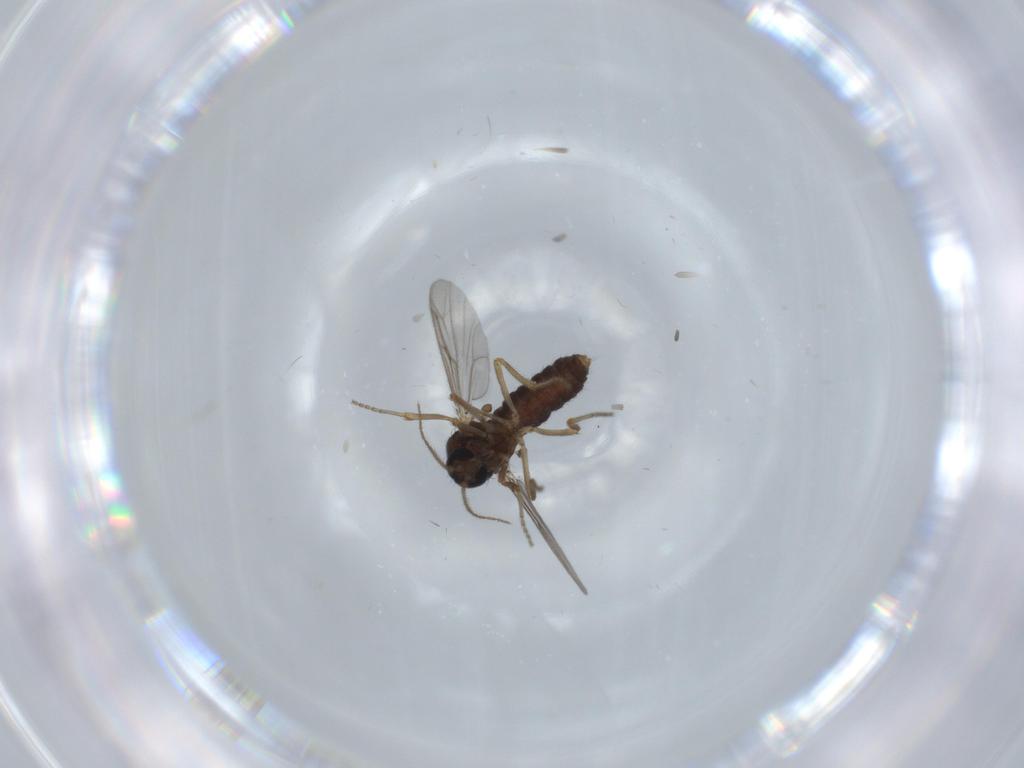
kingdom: Animalia
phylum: Arthropoda
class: Insecta
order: Diptera
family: Ceratopogonidae
